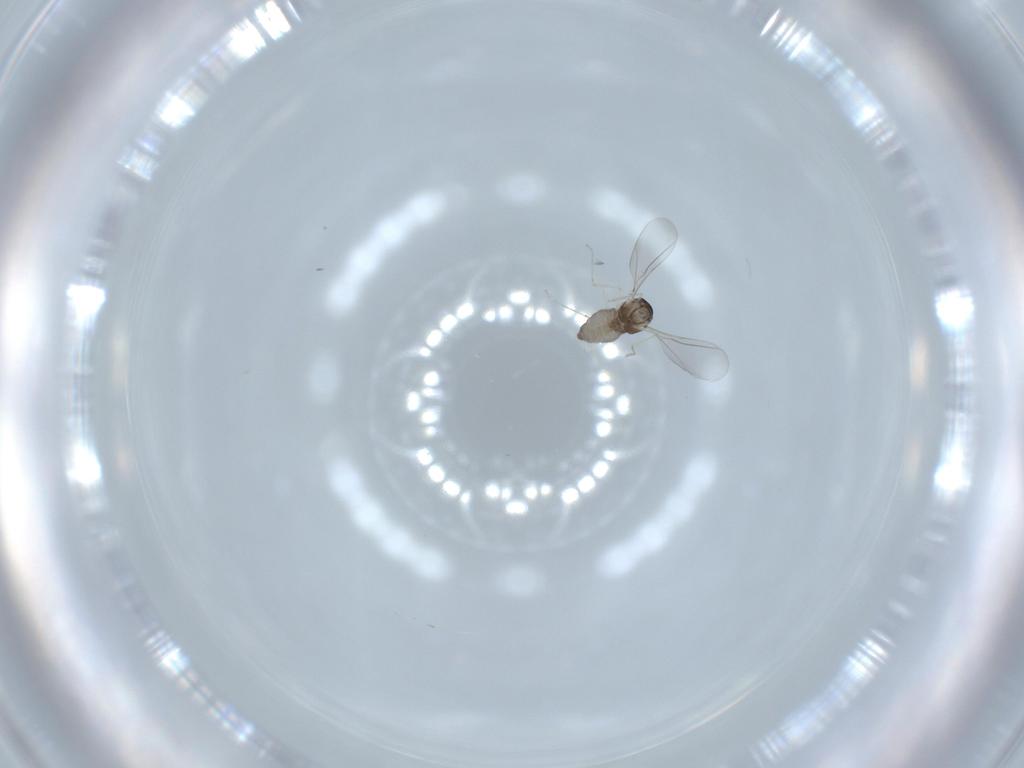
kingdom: Animalia
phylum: Arthropoda
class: Insecta
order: Diptera
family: Cecidomyiidae
